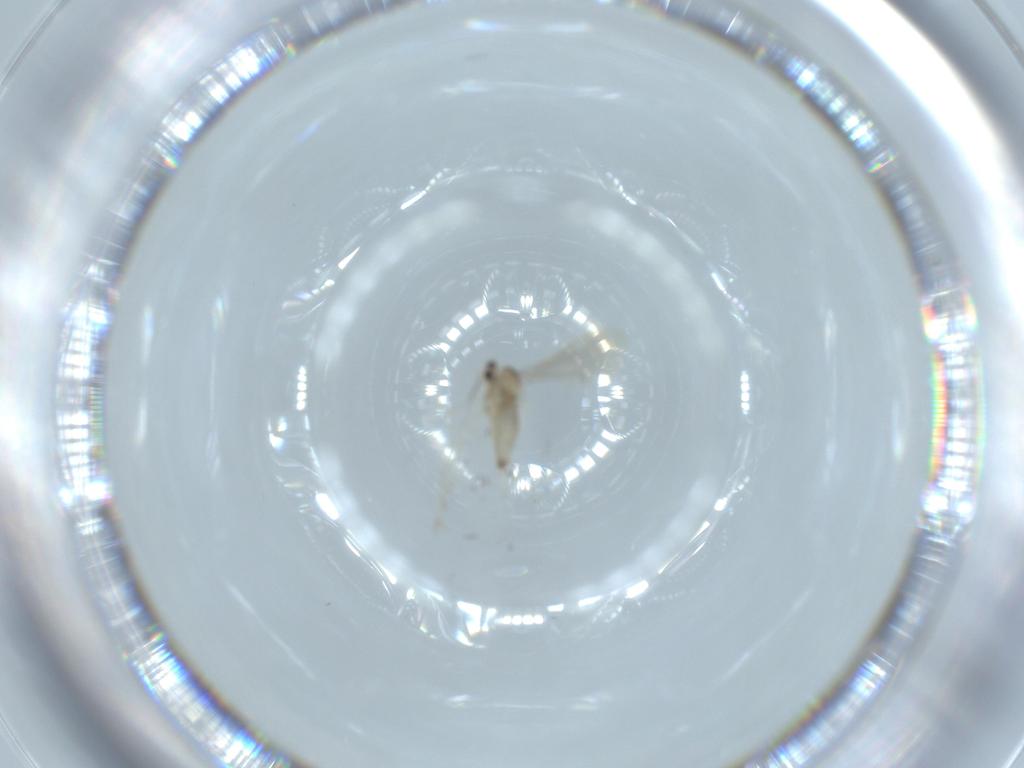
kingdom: Animalia
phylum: Arthropoda
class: Insecta
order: Diptera
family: Cecidomyiidae
